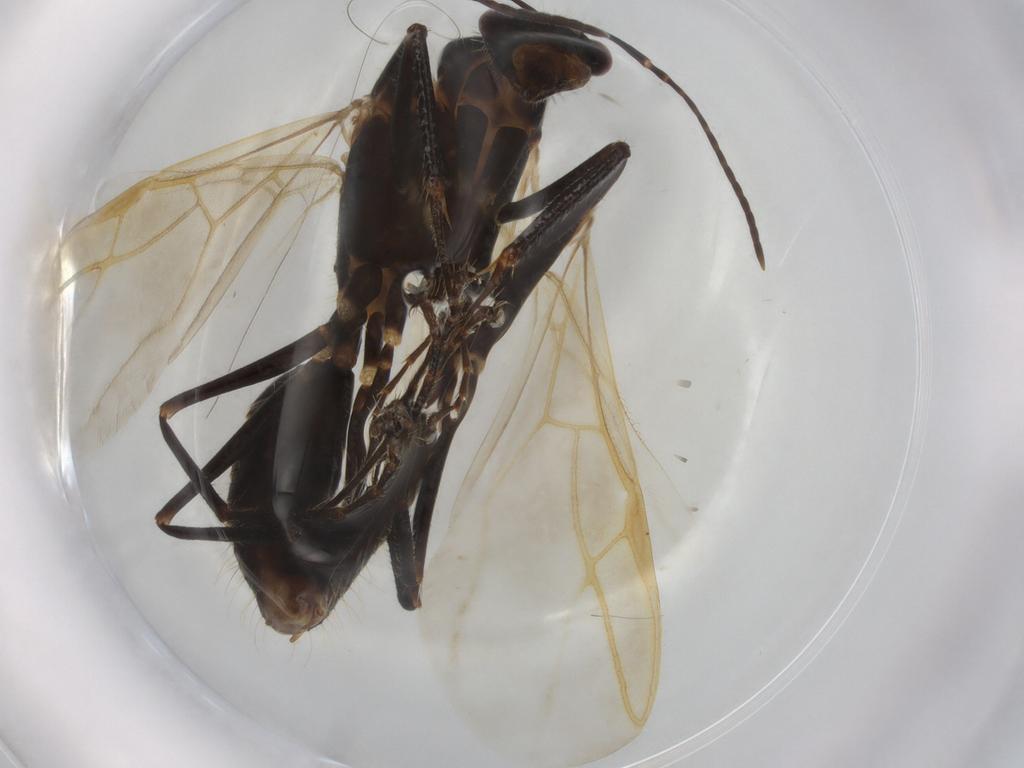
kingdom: Animalia
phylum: Arthropoda
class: Insecta
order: Hymenoptera
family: Formicidae
